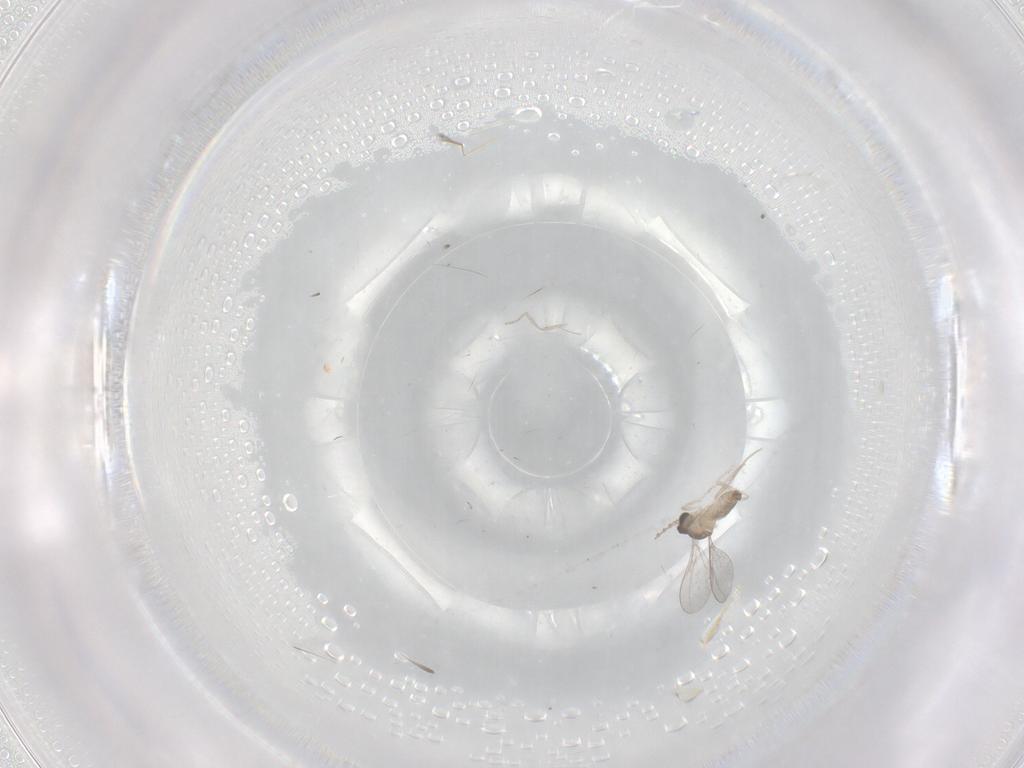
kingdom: Animalia
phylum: Arthropoda
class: Insecta
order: Diptera
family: Cecidomyiidae
